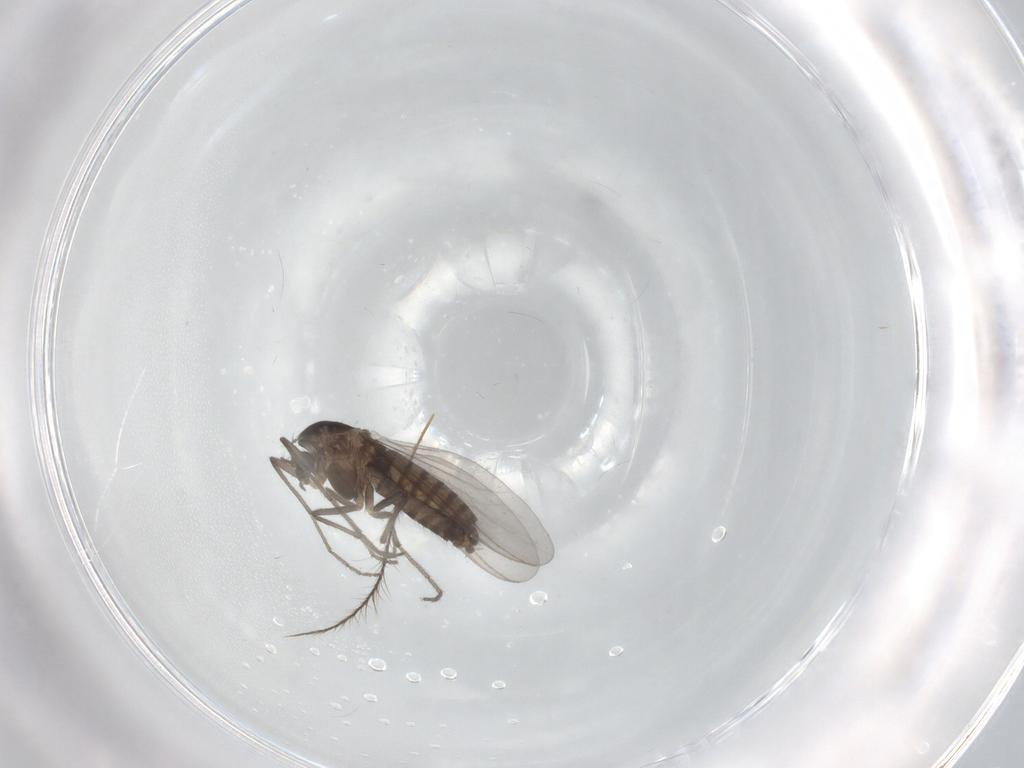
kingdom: Animalia
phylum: Arthropoda
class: Insecta
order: Diptera
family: Chironomidae
